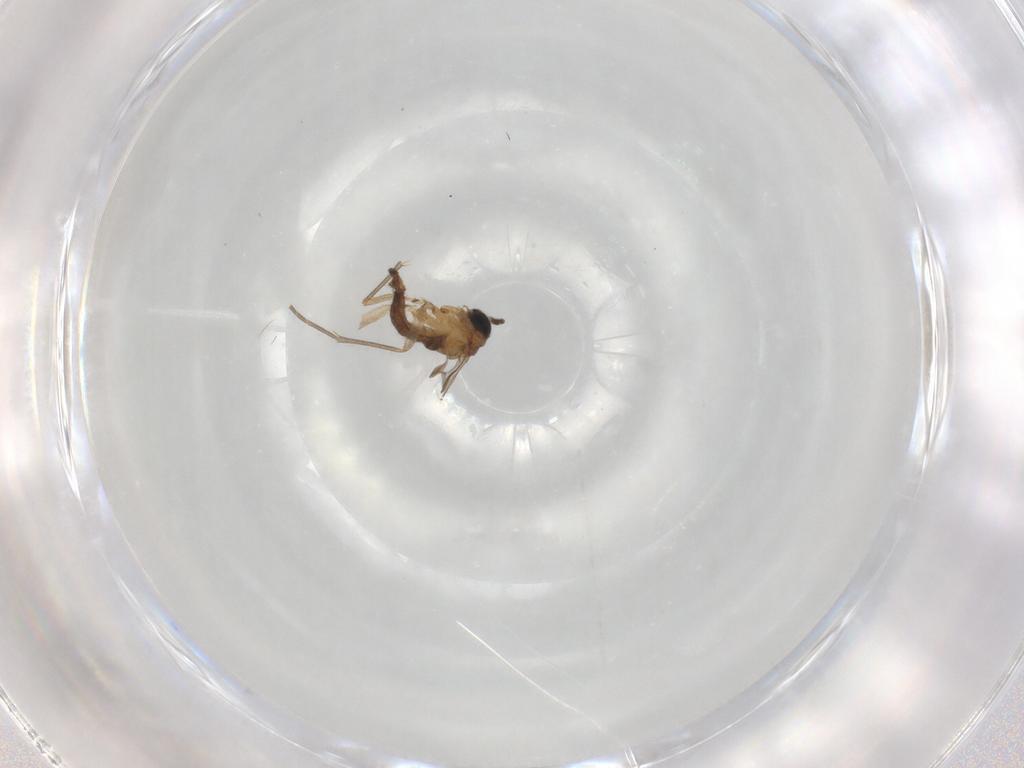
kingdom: Animalia
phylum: Arthropoda
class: Insecta
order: Diptera
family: Sciaridae
